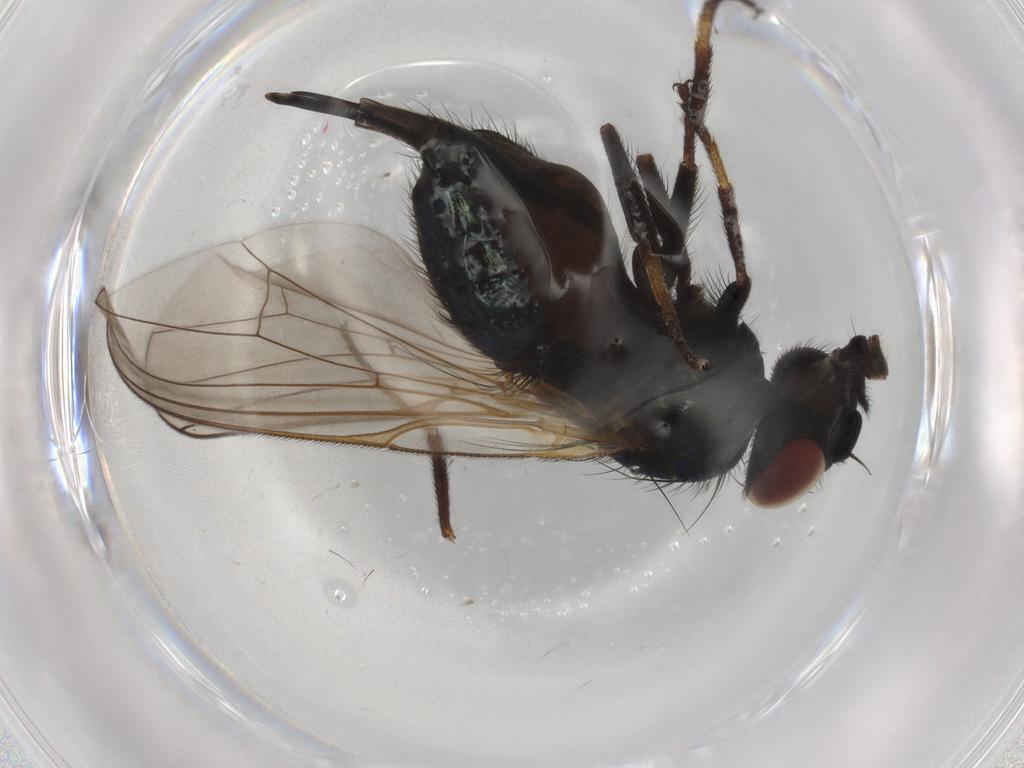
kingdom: Animalia
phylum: Arthropoda
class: Insecta
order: Diptera
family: Lonchaeidae
